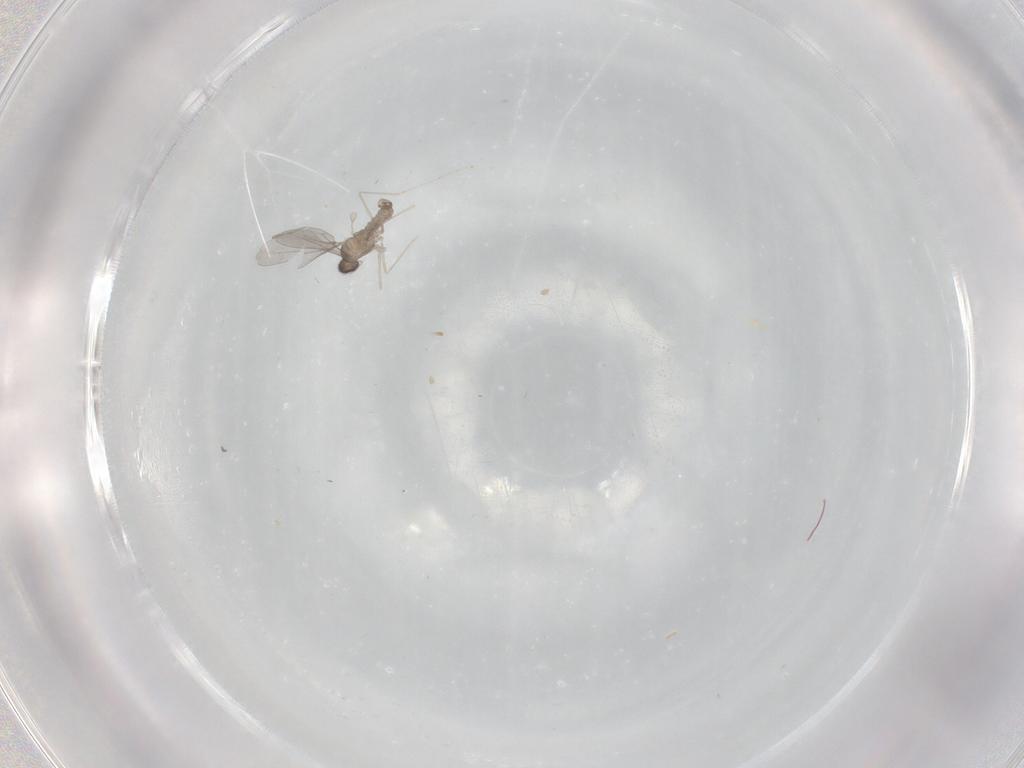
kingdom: Animalia
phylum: Arthropoda
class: Insecta
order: Diptera
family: Cecidomyiidae
